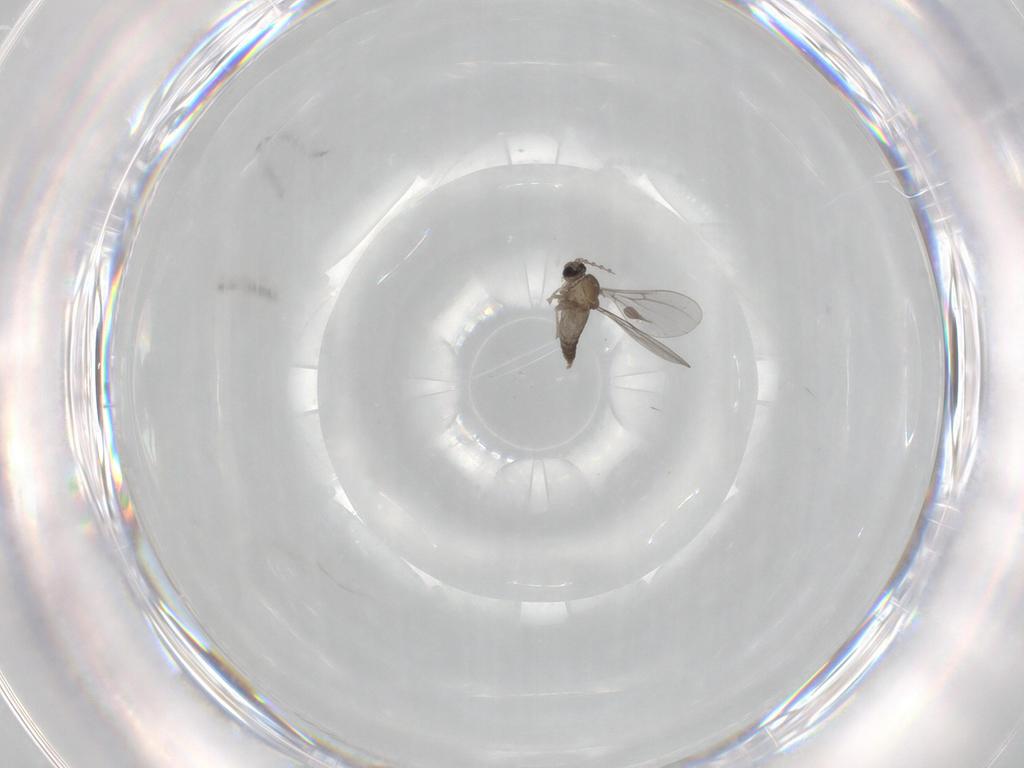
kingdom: Animalia
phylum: Arthropoda
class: Insecta
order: Diptera
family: Cecidomyiidae
